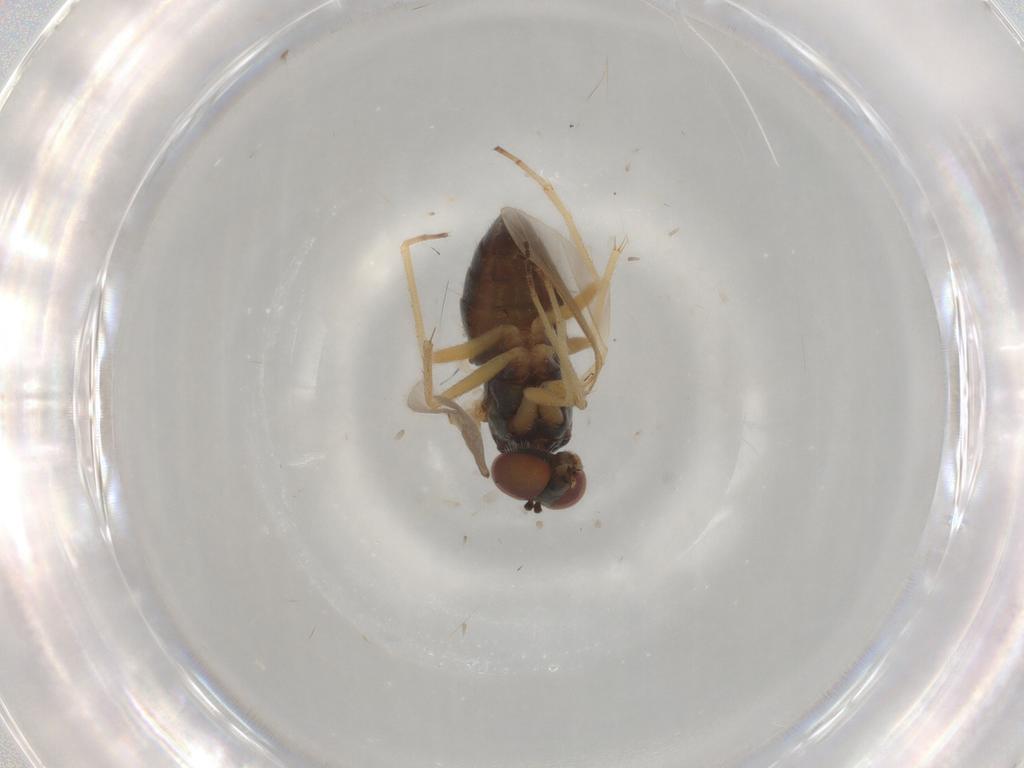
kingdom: Animalia
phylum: Arthropoda
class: Insecta
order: Diptera
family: Dolichopodidae
